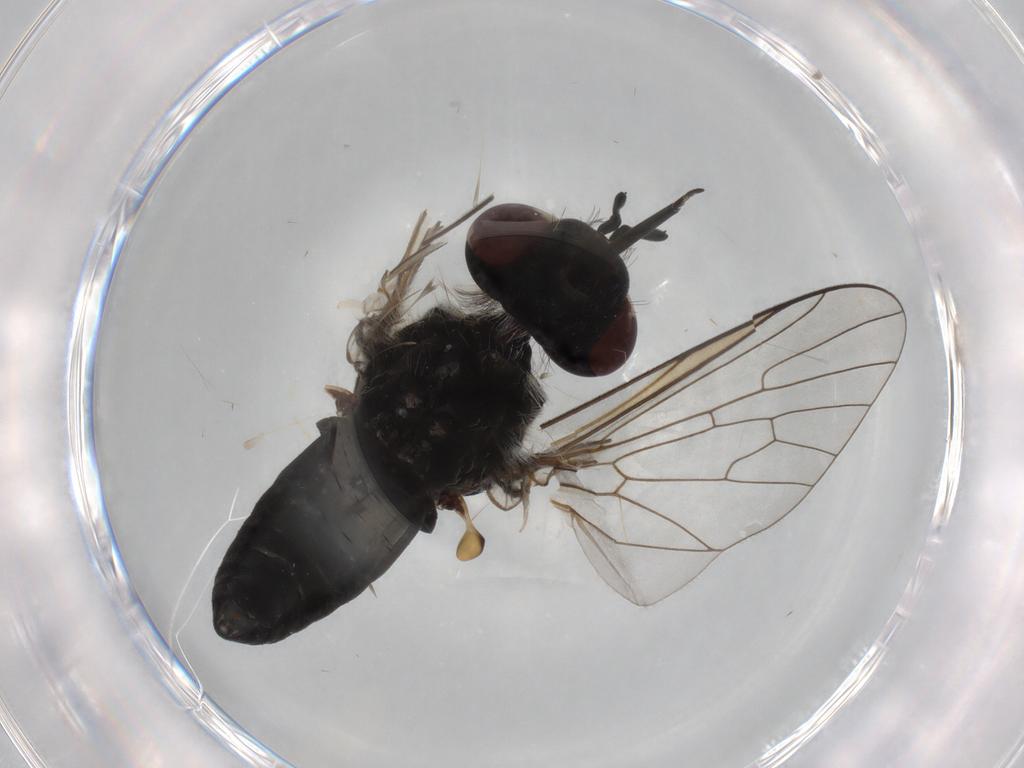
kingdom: Animalia
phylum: Arthropoda
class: Insecta
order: Diptera
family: Bombyliidae
